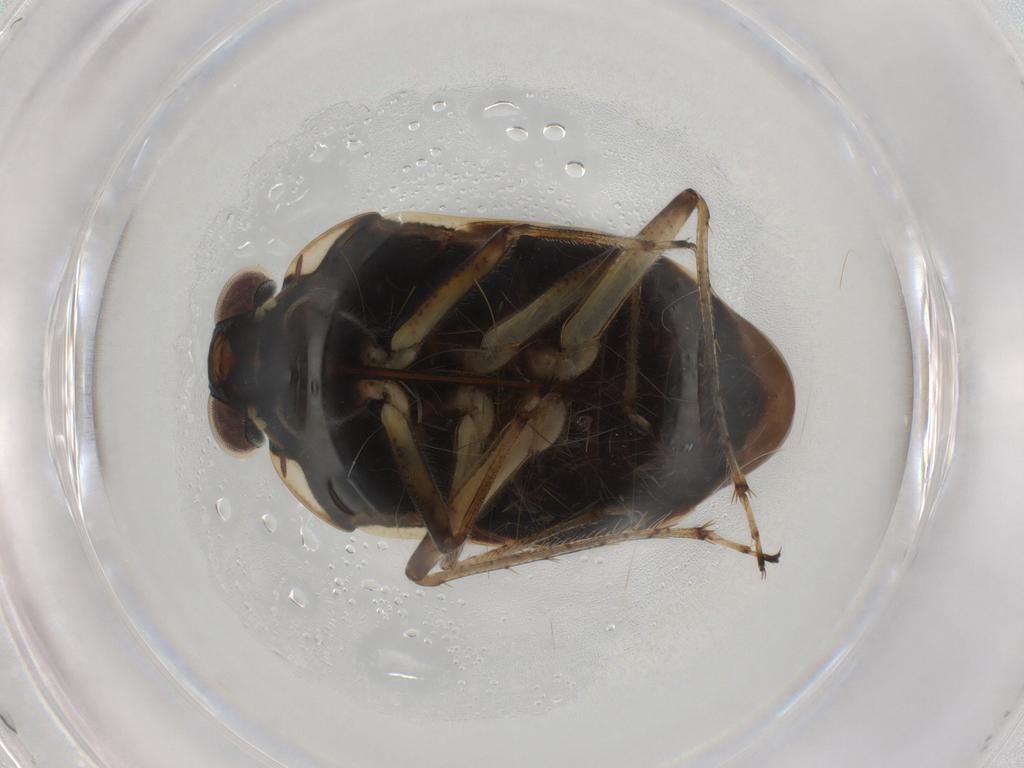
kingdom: Animalia
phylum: Arthropoda
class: Insecta
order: Hemiptera
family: Ochteridae
